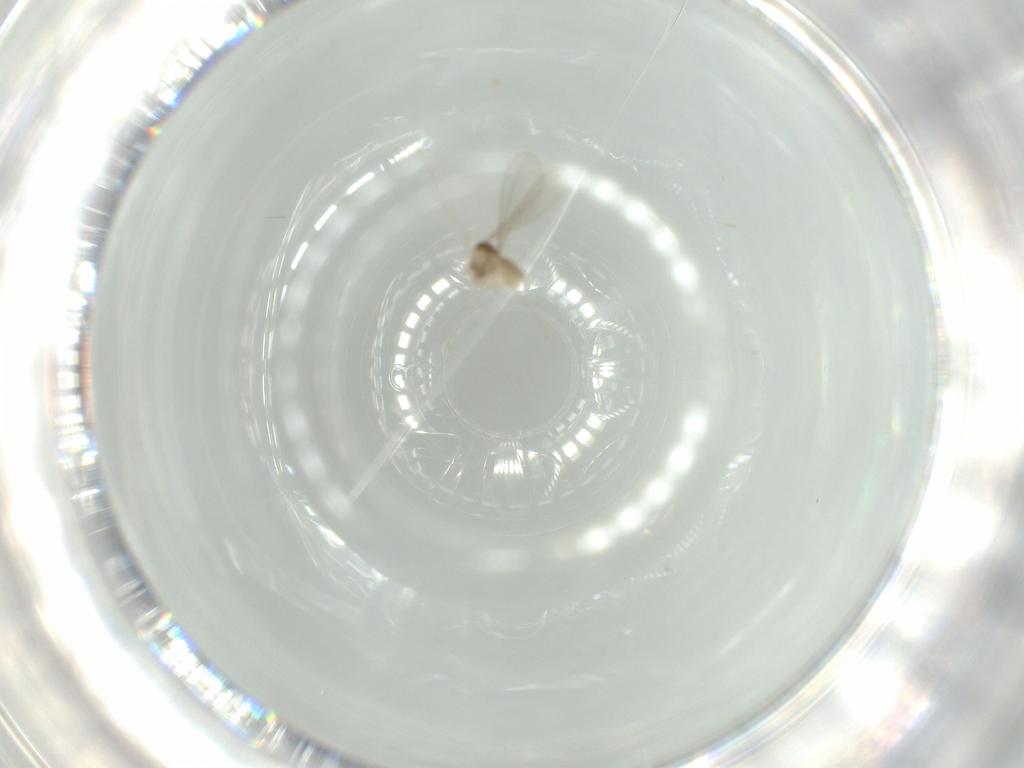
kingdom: Animalia
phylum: Arthropoda
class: Insecta
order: Diptera
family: Cecidomyiidae
